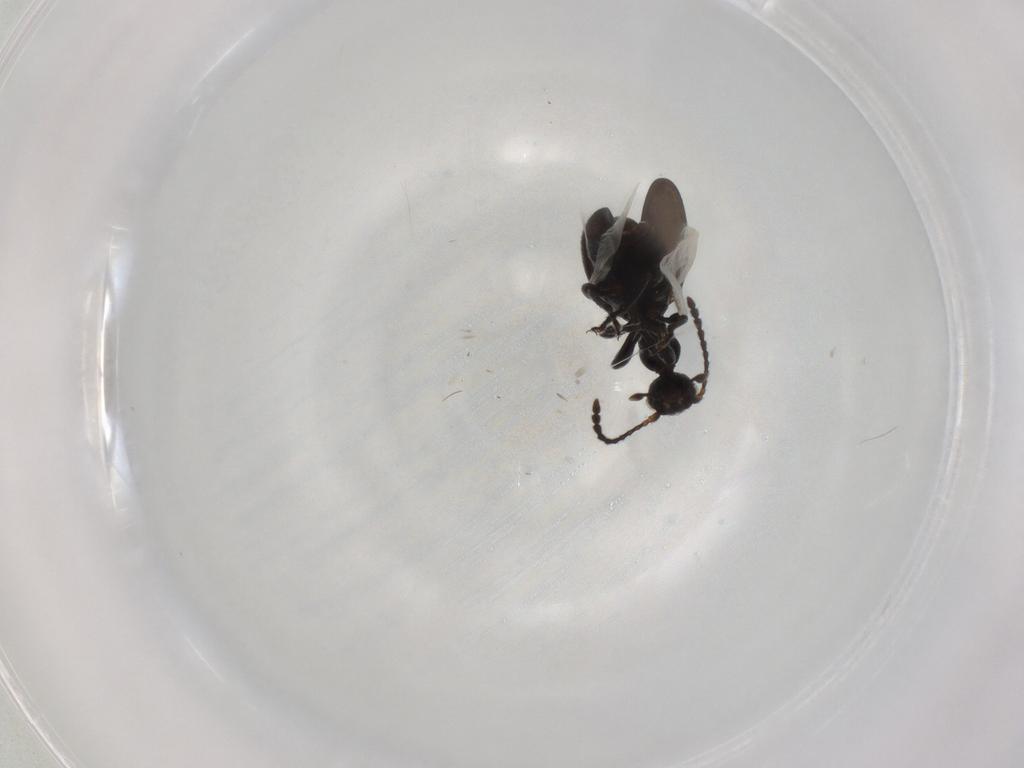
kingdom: Animalia
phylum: Arthropoda
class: Insecta
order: Coleoptera
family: Anthicidae
